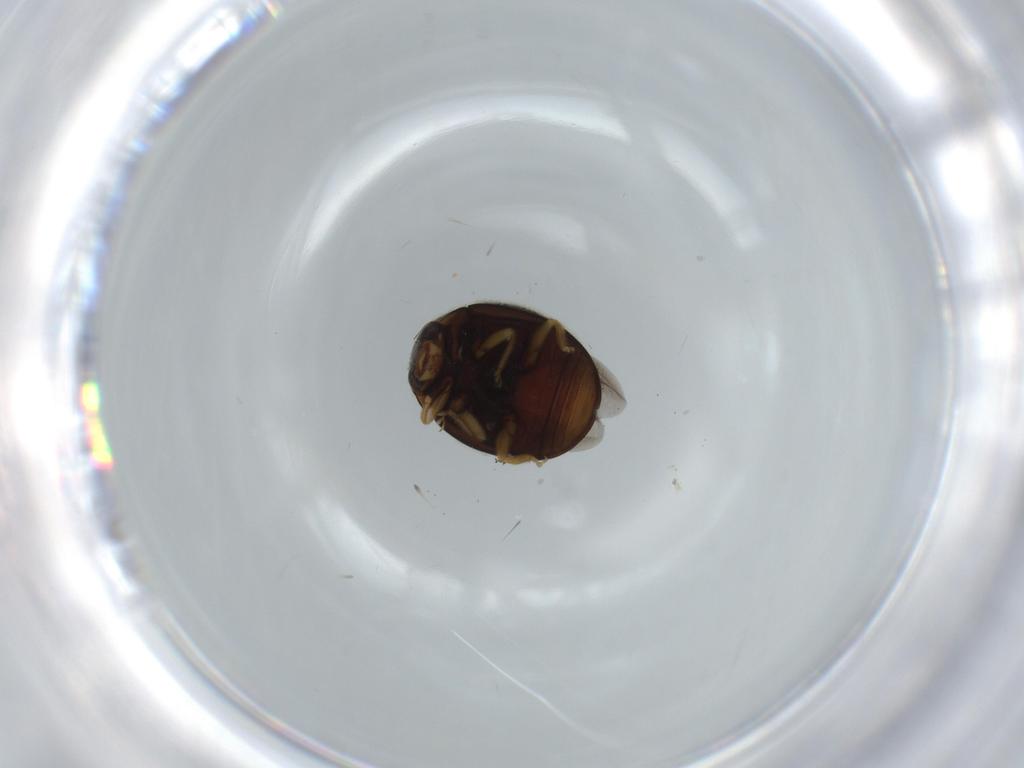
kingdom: Animalia
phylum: Arthropoda
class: Insecta
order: Coleoptera
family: Coccinellidae
